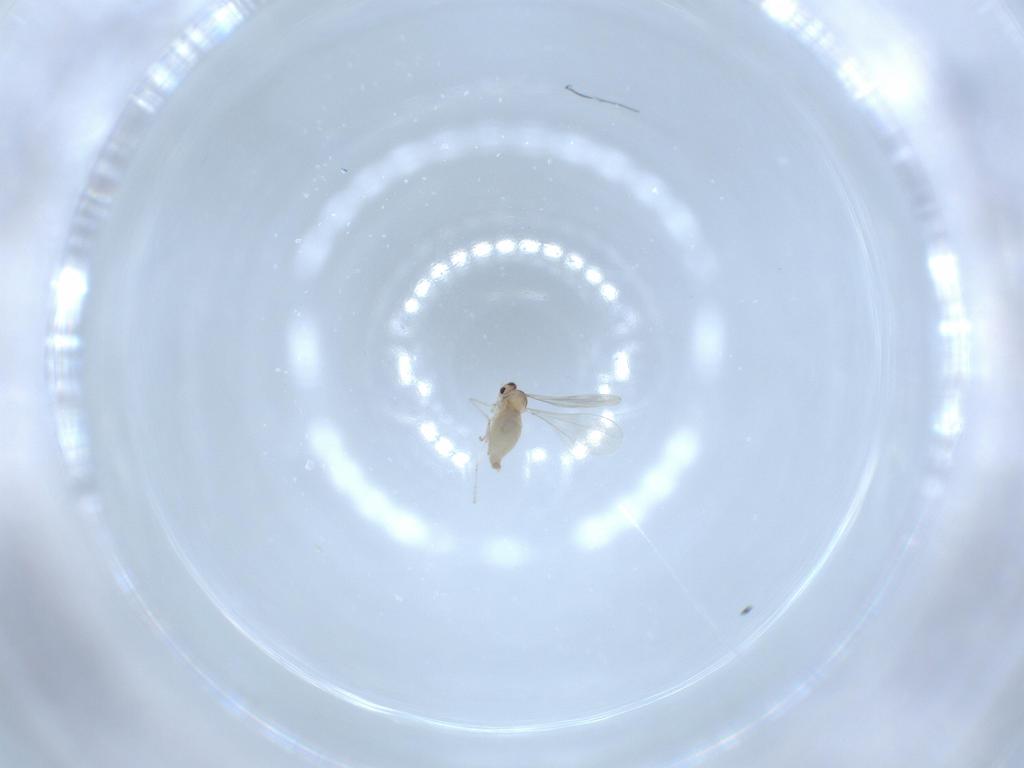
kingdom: Animalia
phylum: Arthropoda
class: Insecta
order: Diptera
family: Cecidomyiidae
